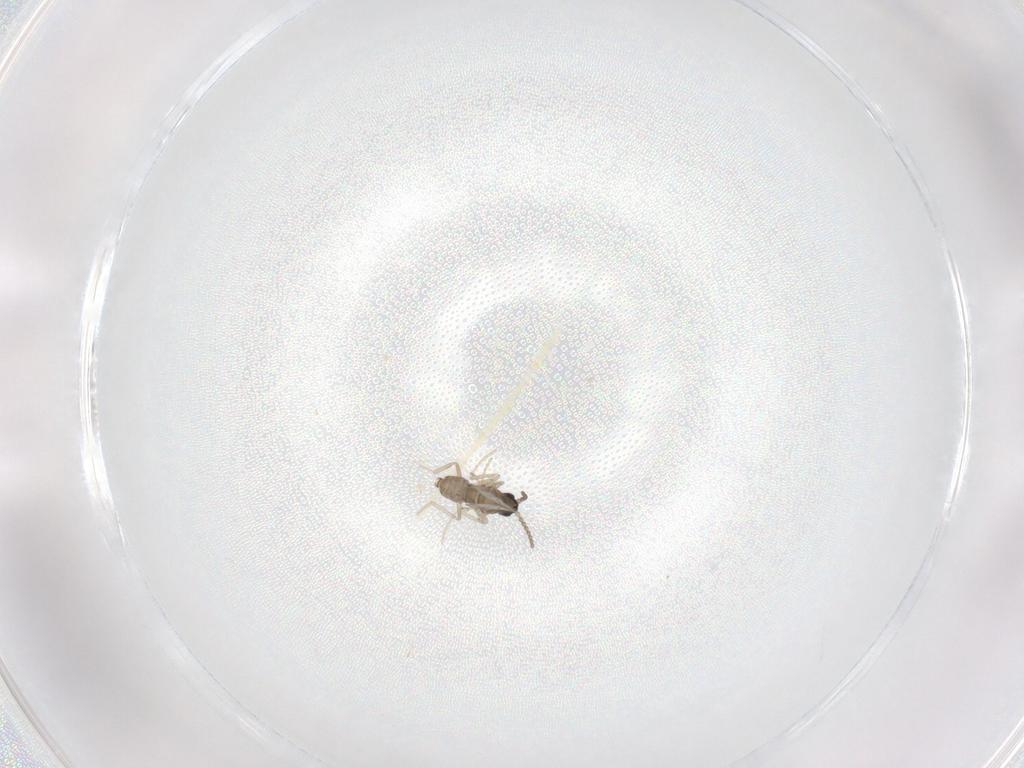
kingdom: Animalia
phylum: Arthropoda
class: Insecta
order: Diptera
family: Cecidomyiidae
